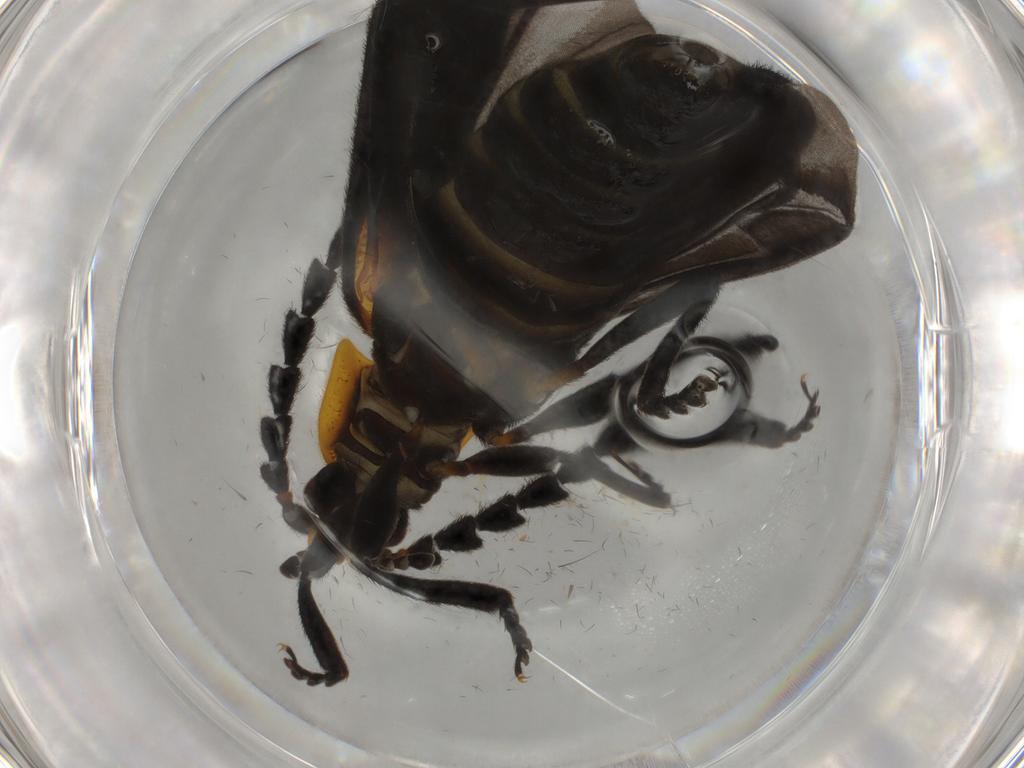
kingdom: Animalia
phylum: Arthropoda
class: Insecta
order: Coleoptera
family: Lycidae
